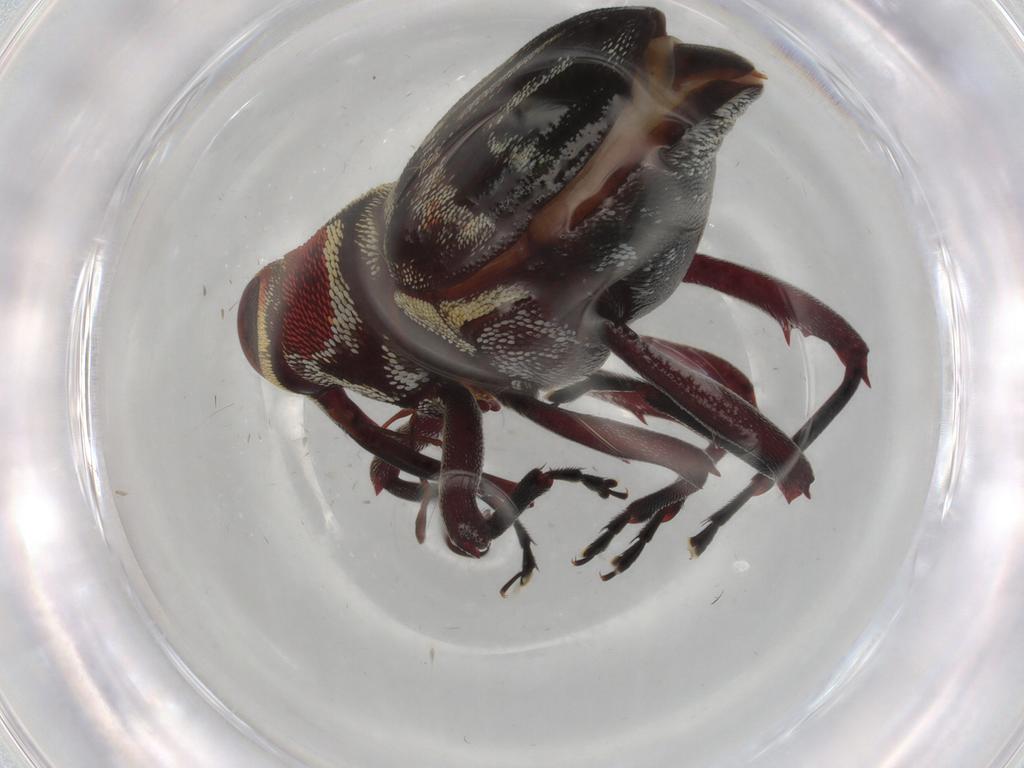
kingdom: Animalia
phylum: Arthropoda
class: Insecta
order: Coleoptera
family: Curculionidae
